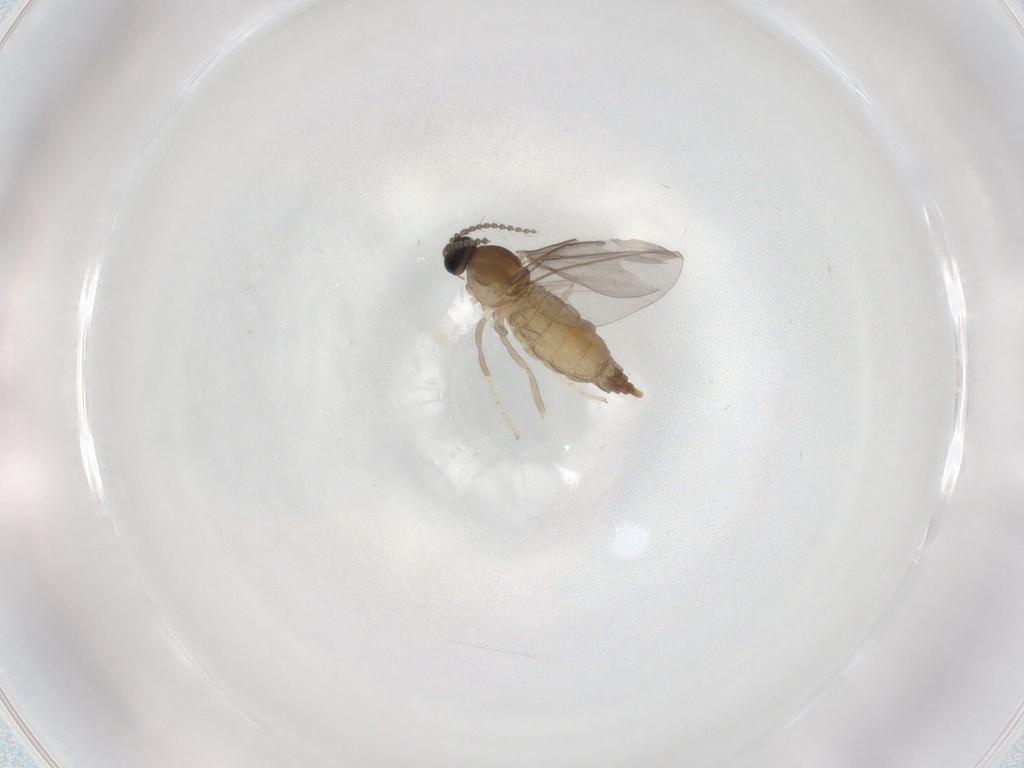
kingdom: Animalia
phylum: Arthropoda
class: Insecta
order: Diptera
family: Cecidomyiidae
